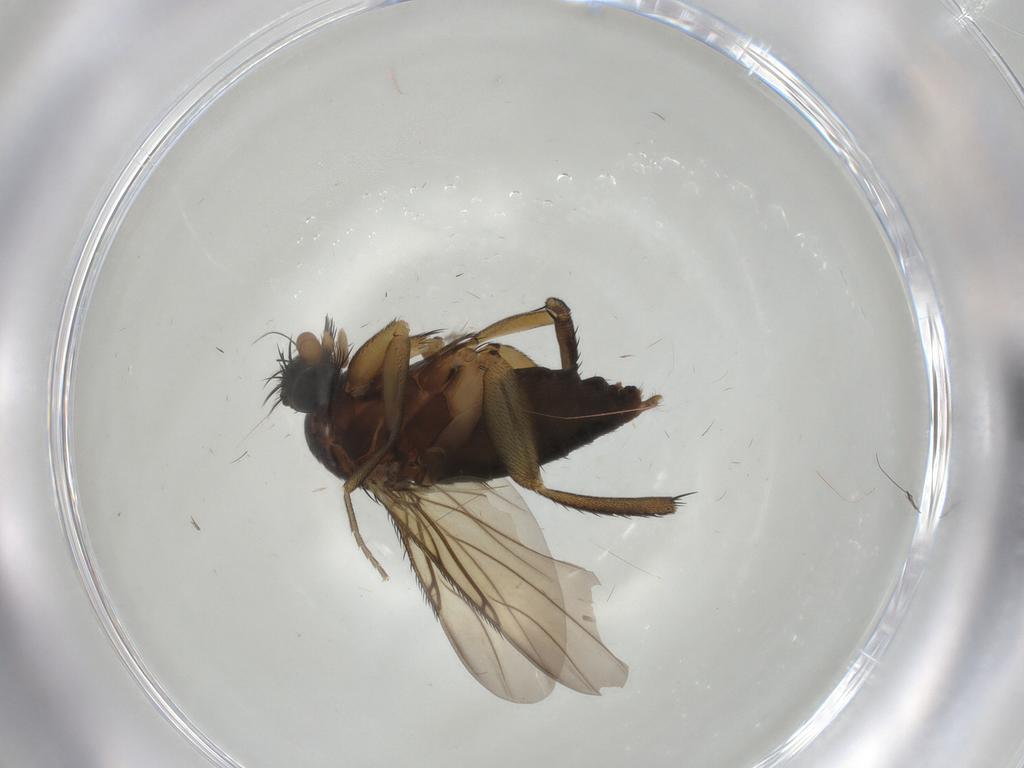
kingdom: Animalia
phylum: Arthropoda
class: Insecta
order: Diptera
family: Phoridae
